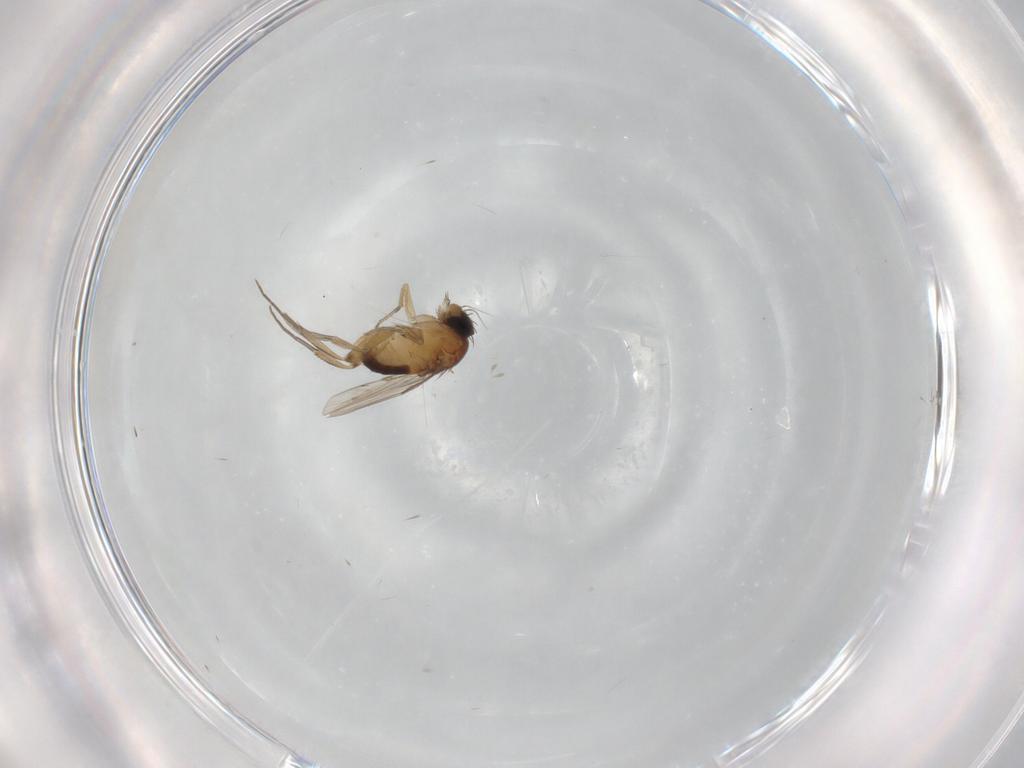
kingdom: Animalia
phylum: Arthropoda
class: Insecta
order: Diptera
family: Phoridae
